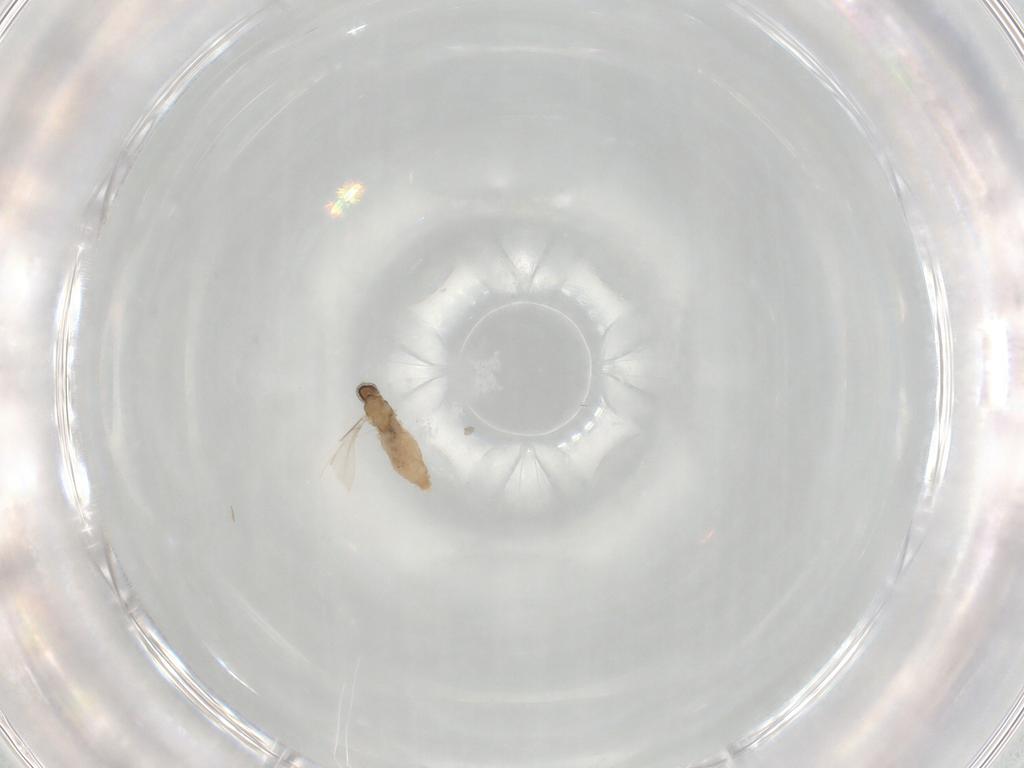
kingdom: Animalia
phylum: Arthropoda
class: Insecta
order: Diptera
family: Cecidomyiidae
